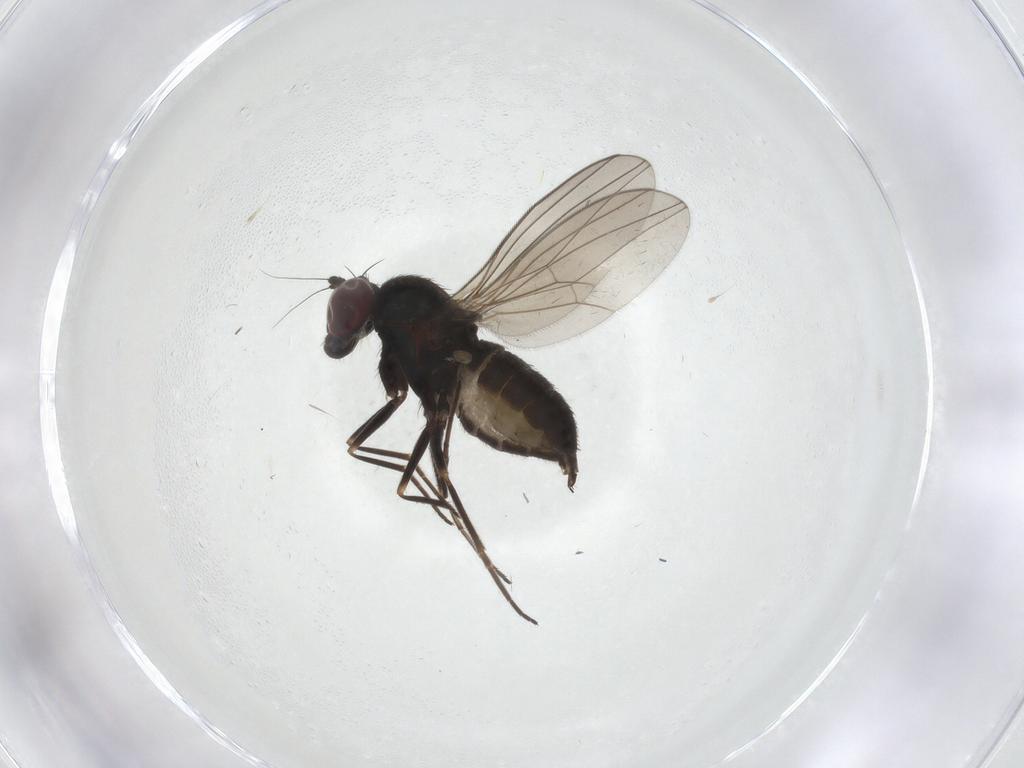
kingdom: Animalia
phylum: Arthropoda
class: Insecta
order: Diptera
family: Dolichopodidae
